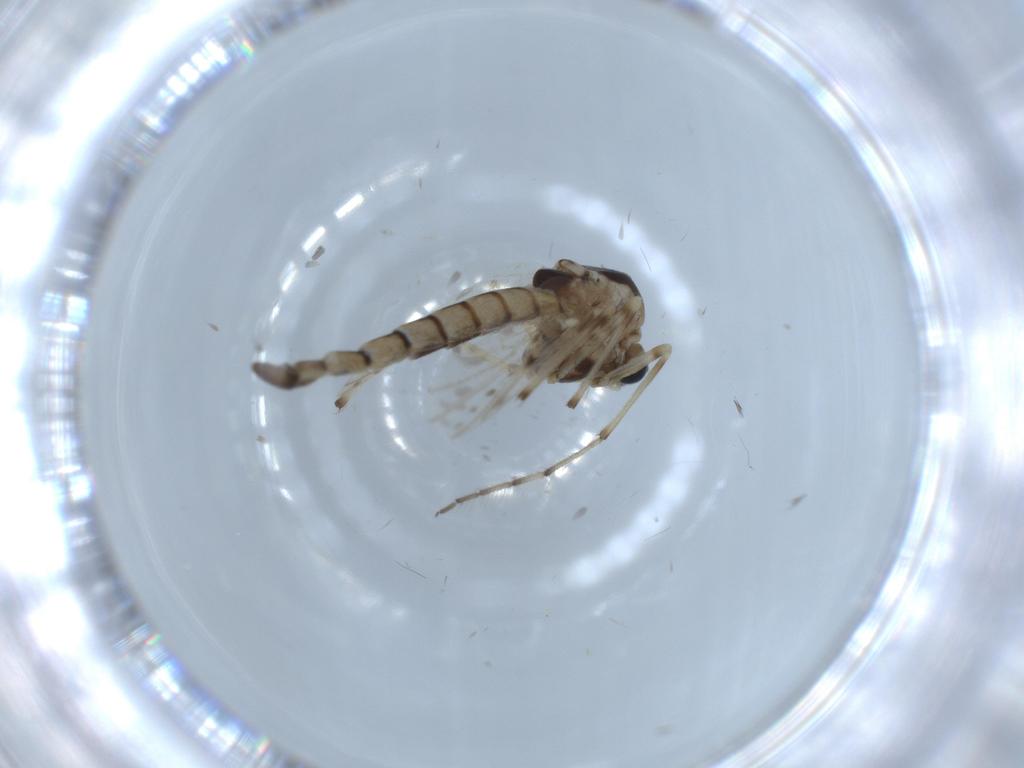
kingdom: Animalia
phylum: Arthropoda
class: Insecta
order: Diptera
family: Chironomidae
